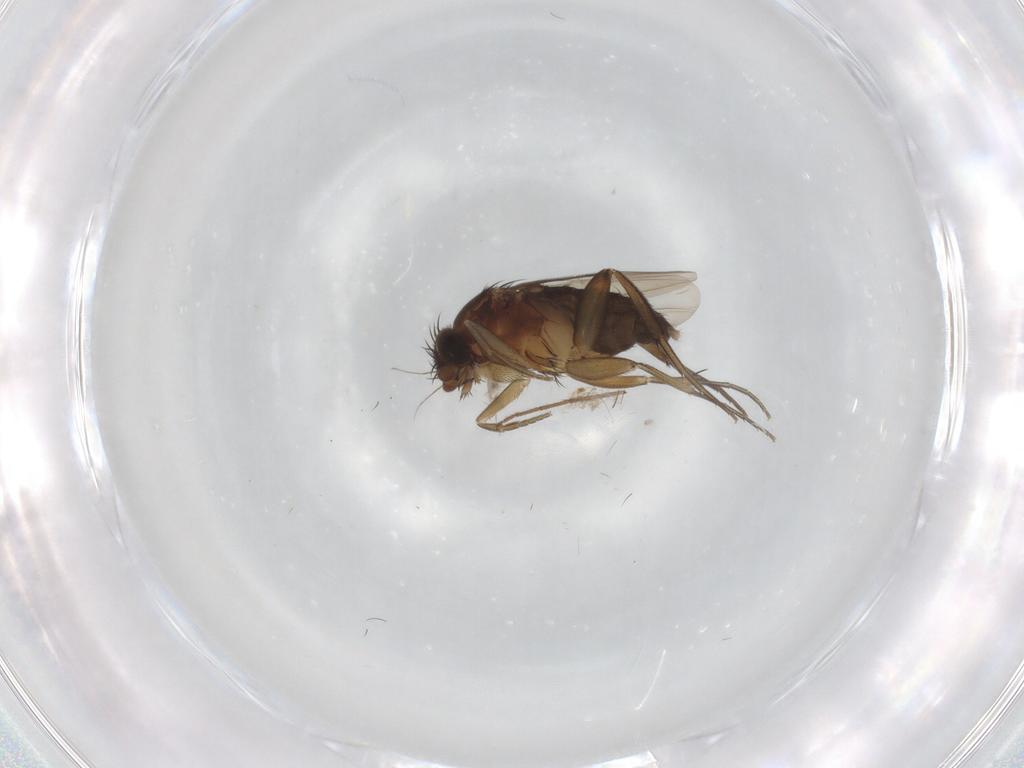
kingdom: Animalia
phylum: Arthropoda
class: Insecta
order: Diptera
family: Phoridae
